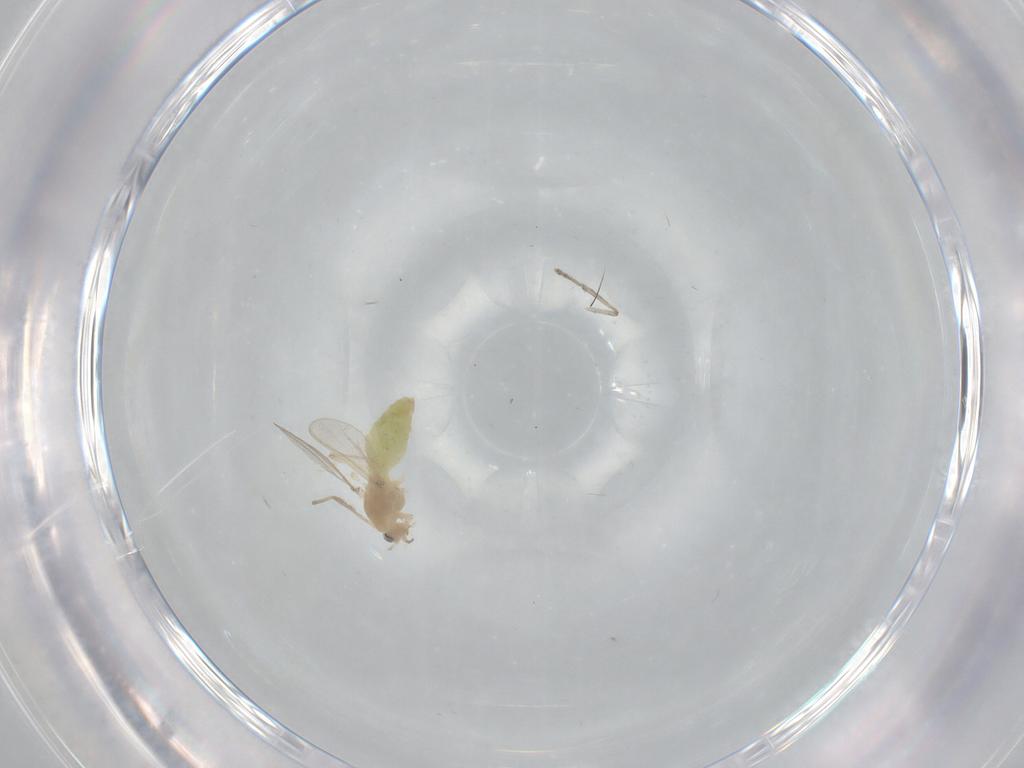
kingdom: Animalia
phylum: Arthropoda
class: Insecta
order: Diptera
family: Chironomidae
